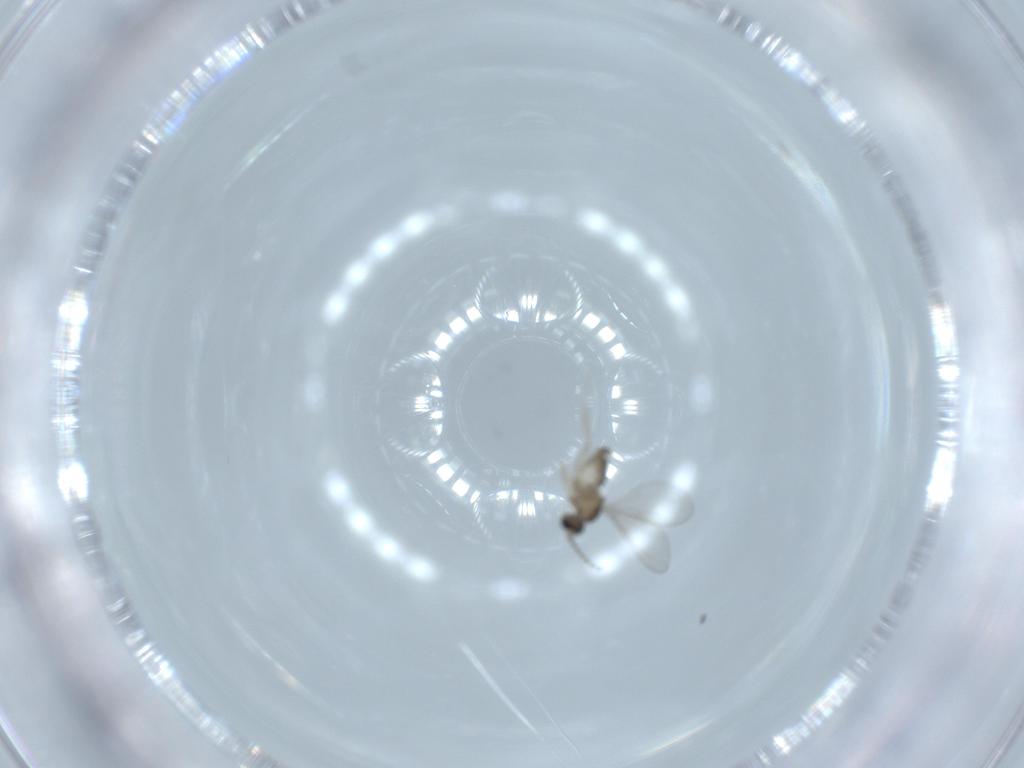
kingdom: Animalia
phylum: Arthropoda
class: Insecta
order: Diptera
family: Cecidomyiidae
